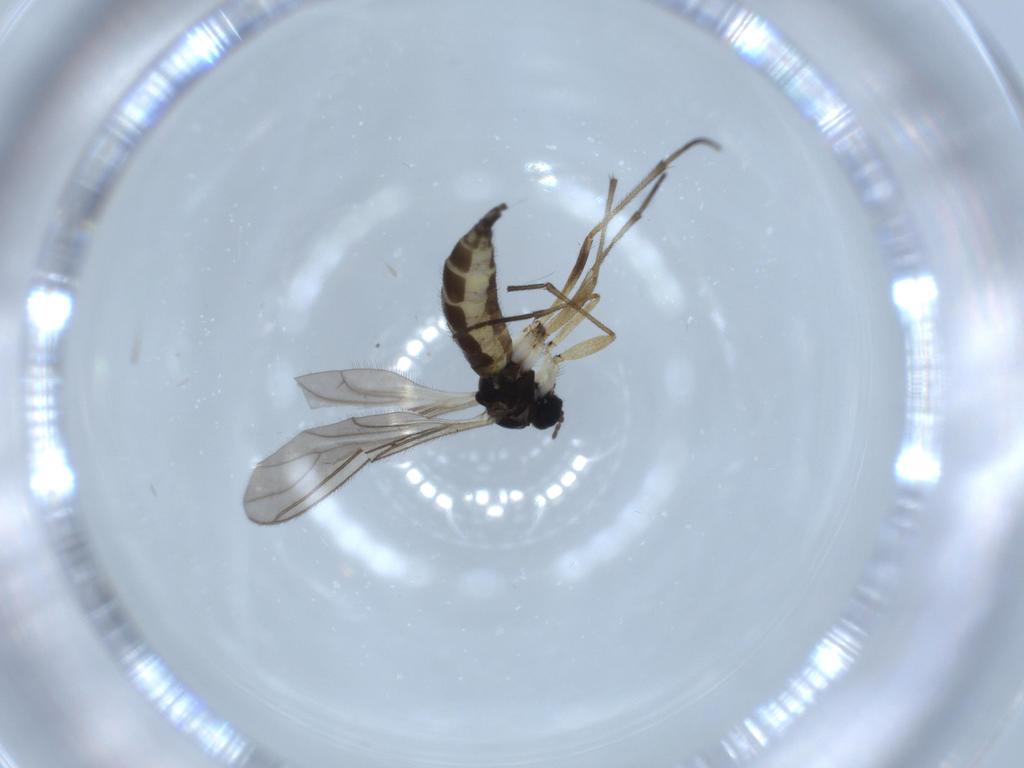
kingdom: Animalia
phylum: Arthropoda
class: Insecta
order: Diptera
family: Sciaridae
